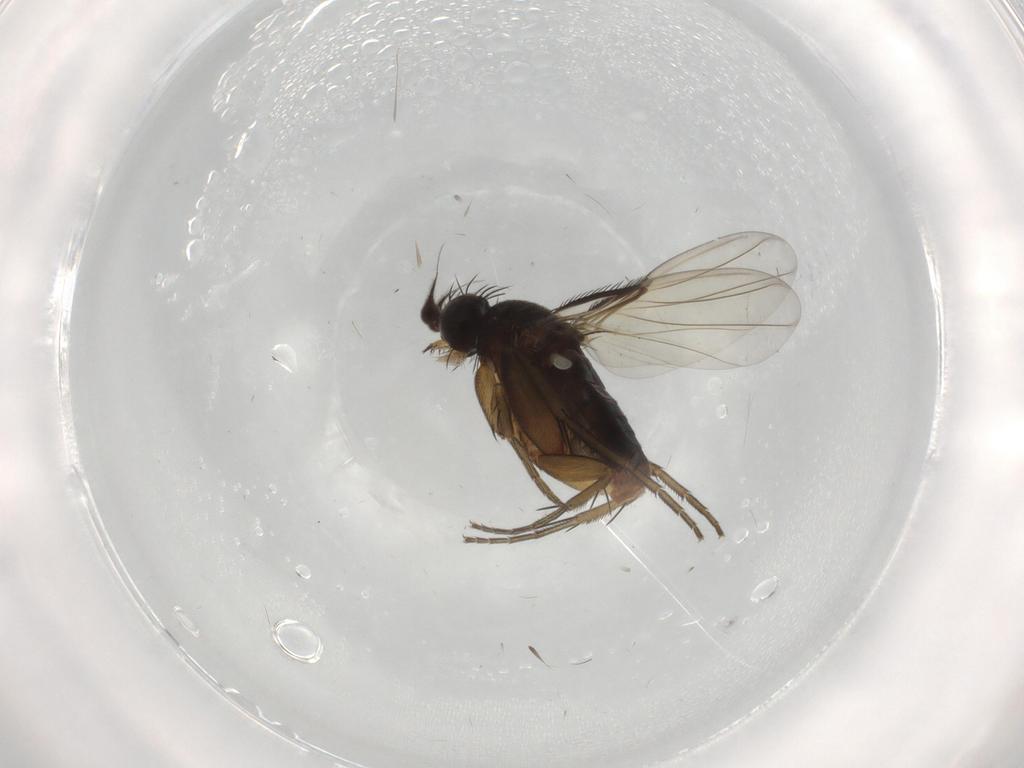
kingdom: Animalia
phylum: Arthropoda
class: Insecta
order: Diptera
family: Phoridae
